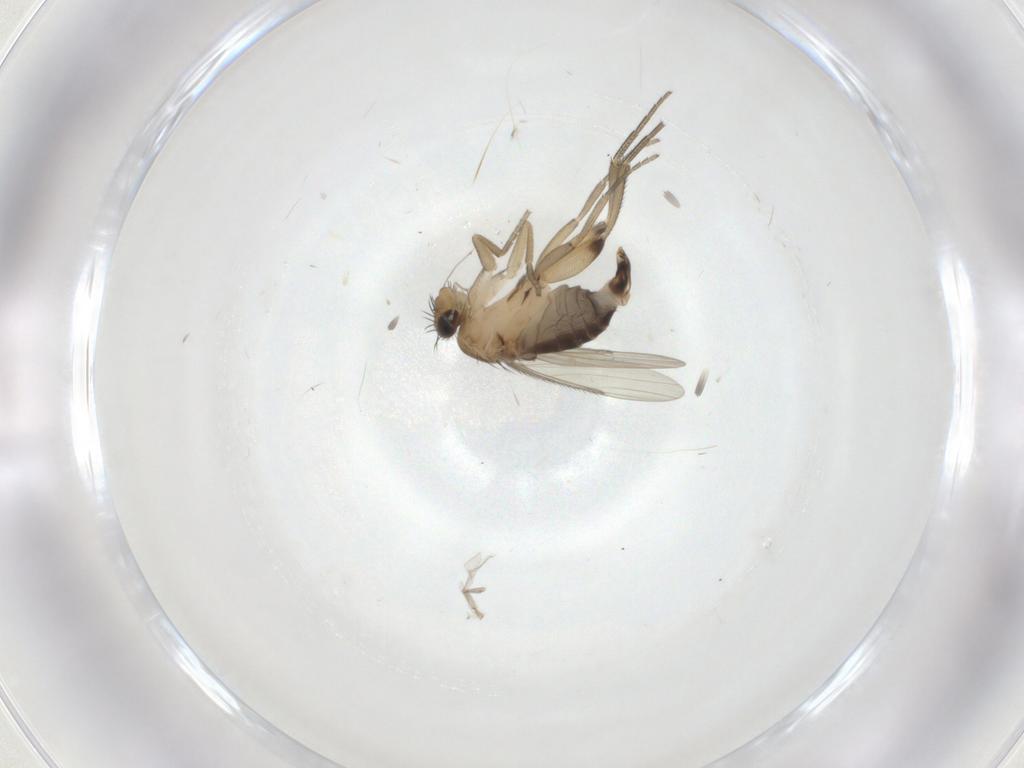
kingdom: Animalia
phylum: Arthropoda
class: Insecta
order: Diptera
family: Phoridae
